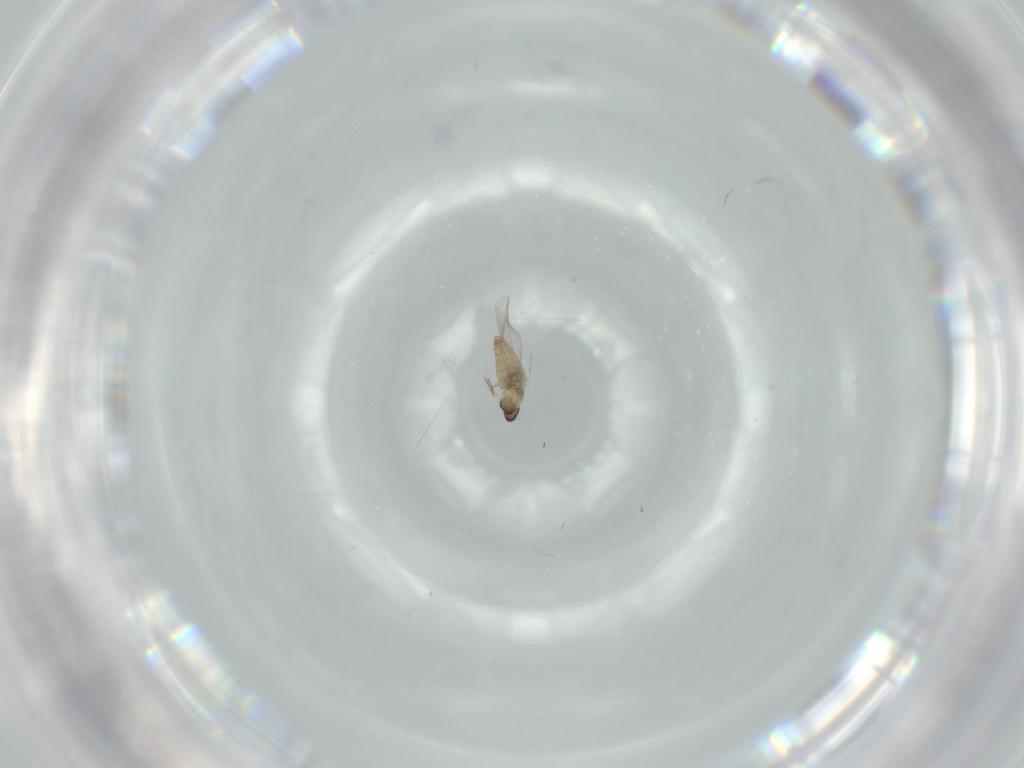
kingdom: Animalia
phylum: Arthropoda
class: Insecta
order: Diptera
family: Cecidomyiidae
